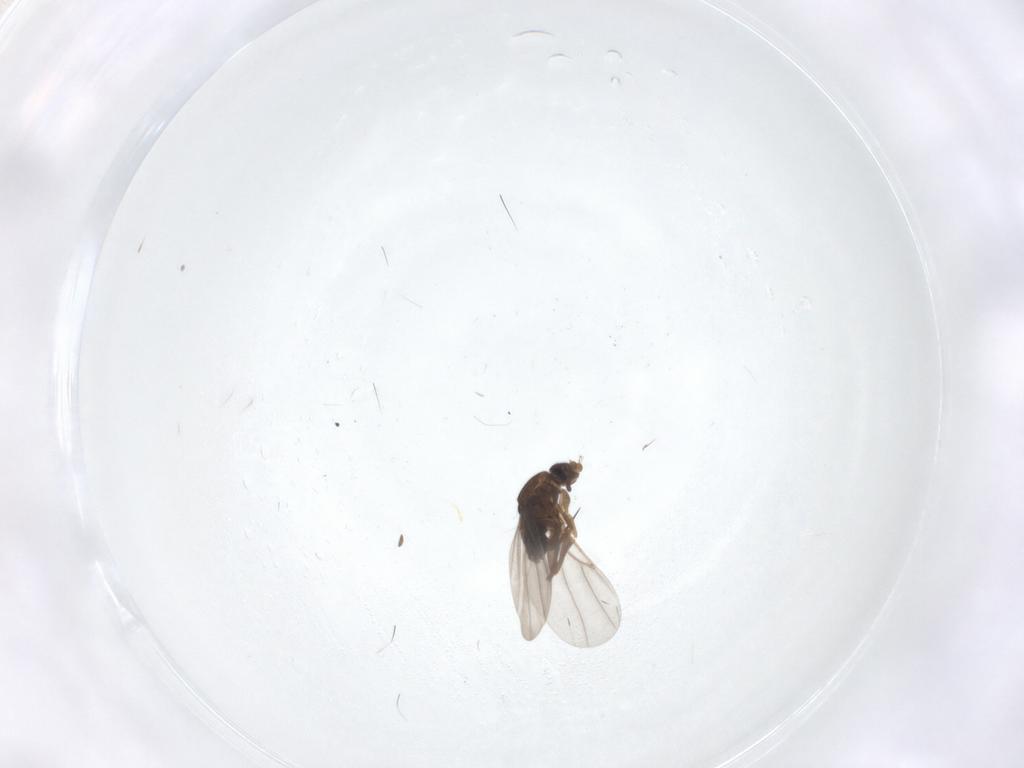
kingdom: Animalia
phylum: Arthropoda
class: Insecta
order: Diptera
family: Phoridae
